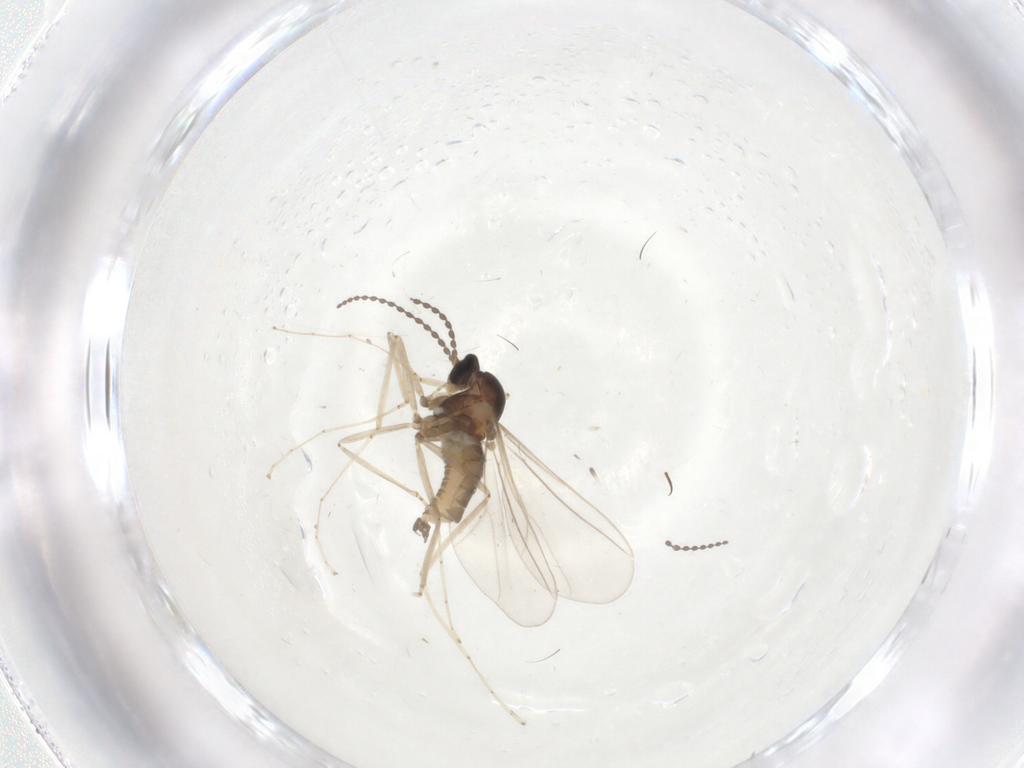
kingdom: Animalia
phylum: Arthropoda
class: Insecta
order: Diptera
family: Cecidomyiidae
